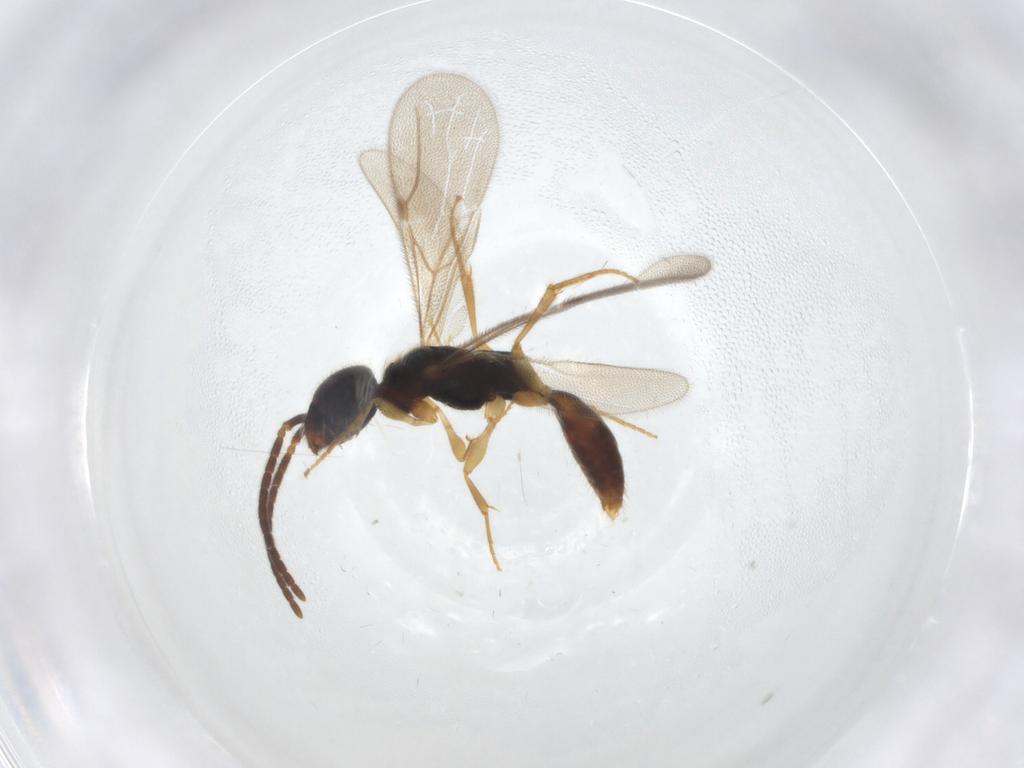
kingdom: Animalia
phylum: Arthropoda
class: Insecta
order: Hymenoptera
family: Bethylidae
